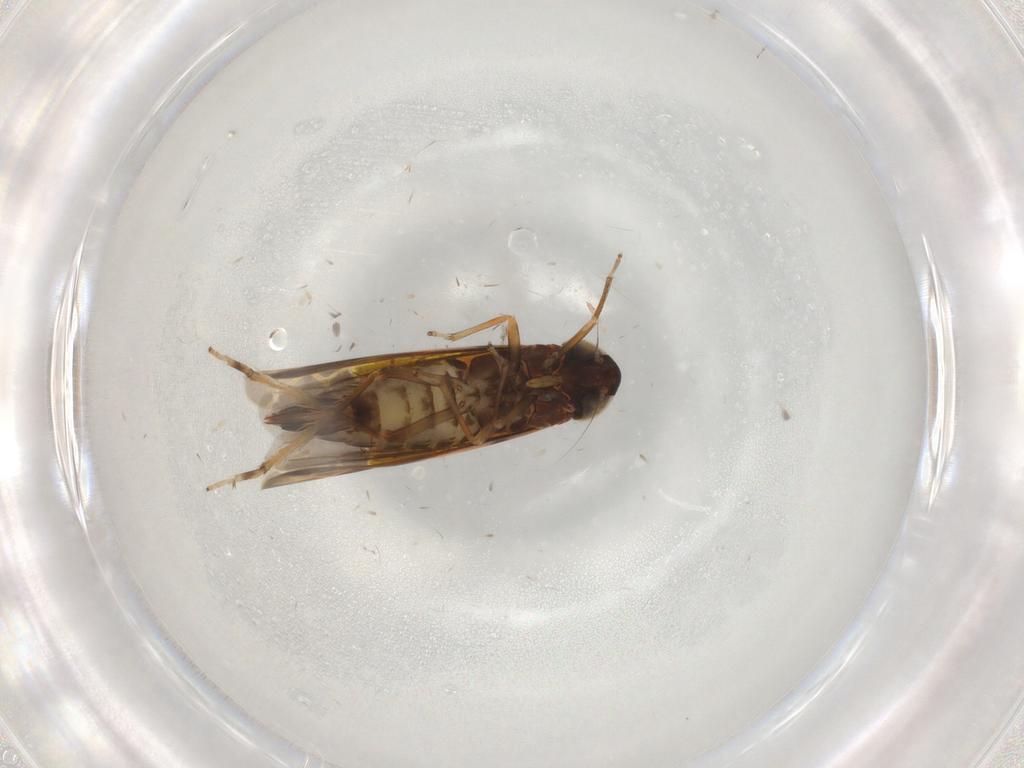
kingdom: Animalia
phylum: Arthropoda
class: Insecta
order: Hemiptera
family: Cicadellidae
